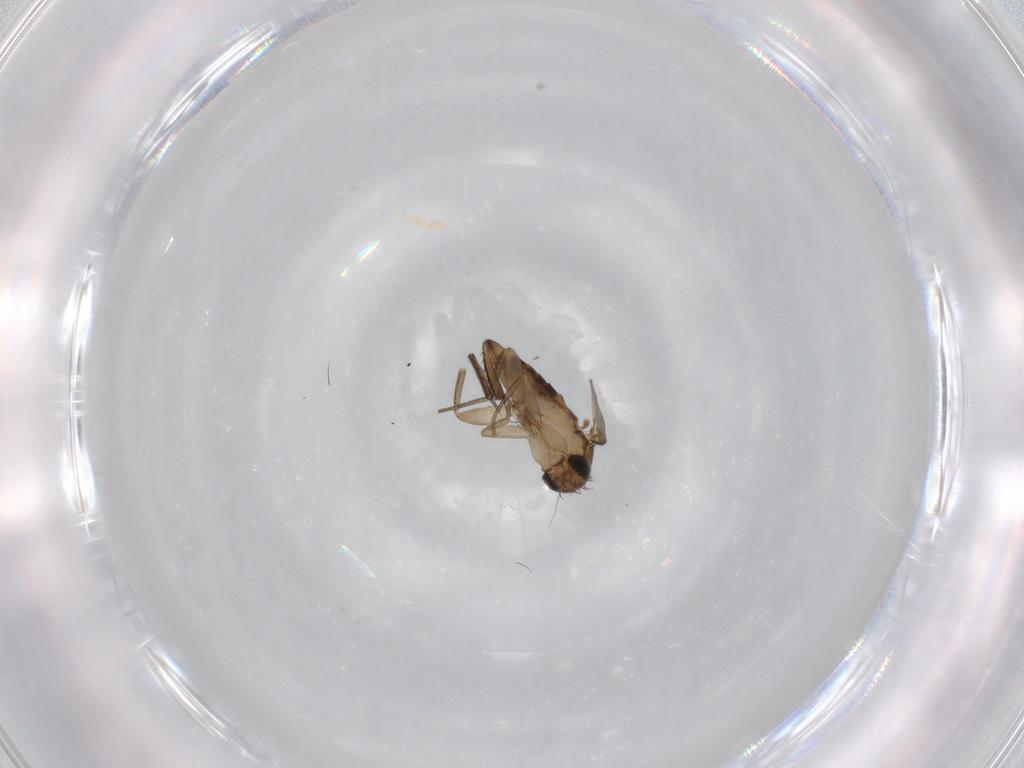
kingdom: Animalia
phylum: Arthropoda
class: Insecta
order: Diptera
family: Phoridae
